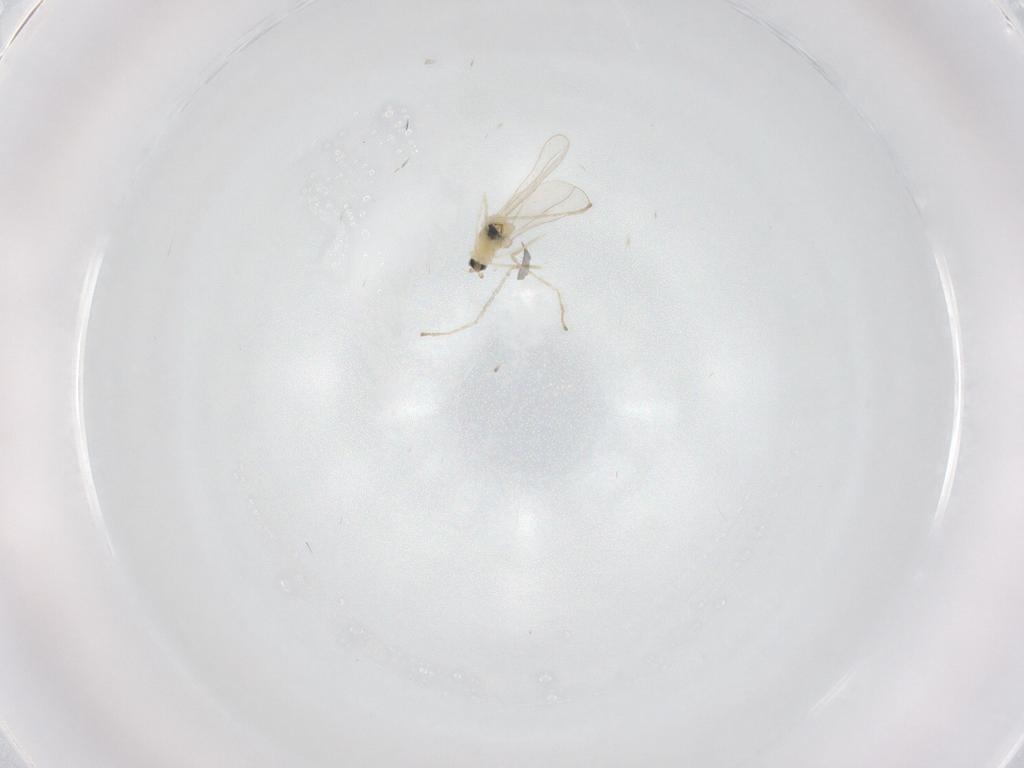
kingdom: Animalia
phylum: Arthropoda
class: Insecta
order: Diptera
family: Cecidomyiidae
